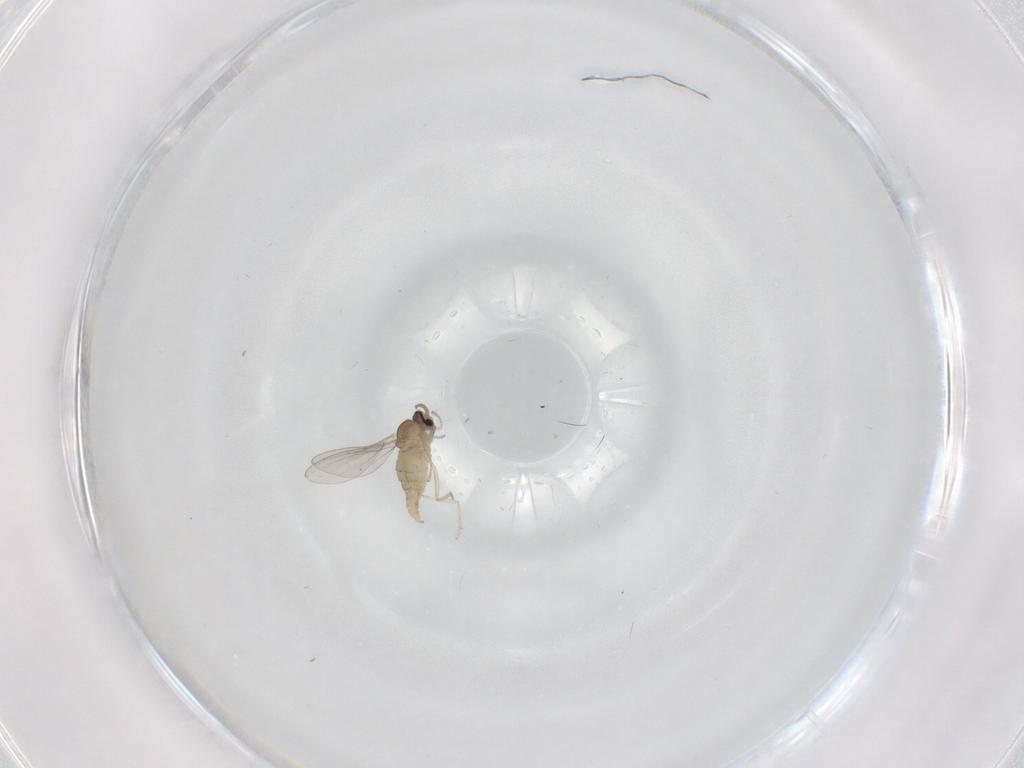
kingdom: Animalia
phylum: Arthropoda
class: Insecta
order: Diptera
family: Cecidomyiidae
